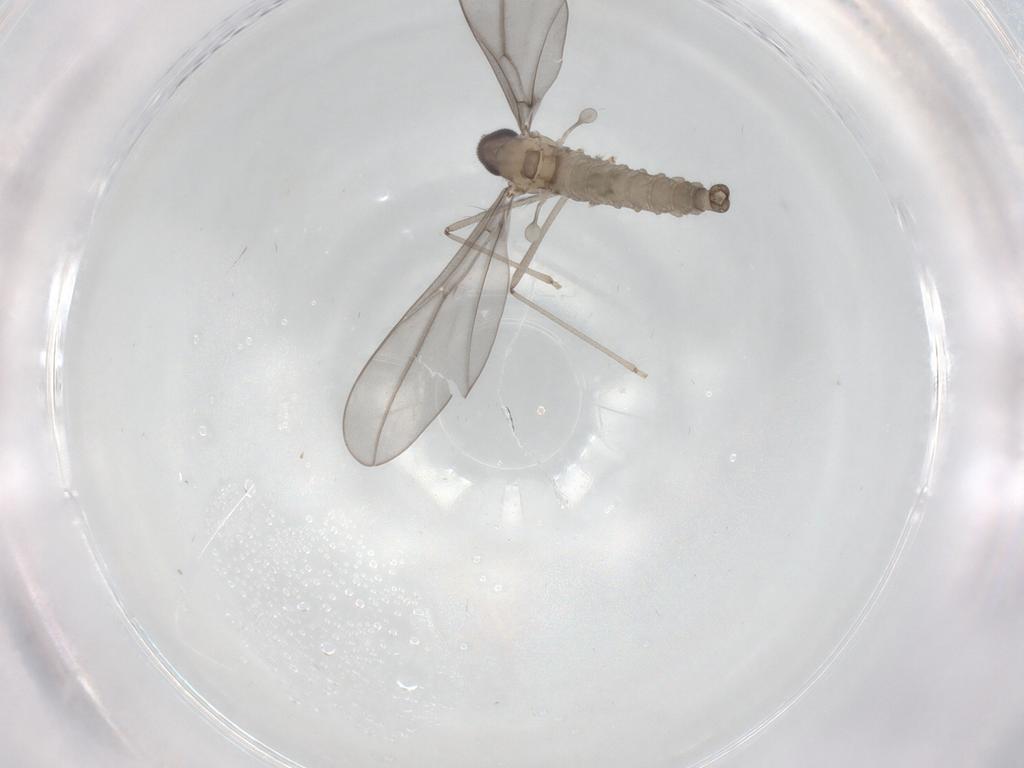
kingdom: Animalia
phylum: Arthropoda
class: Insecta
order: Diptera
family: Cecidomyiidae
